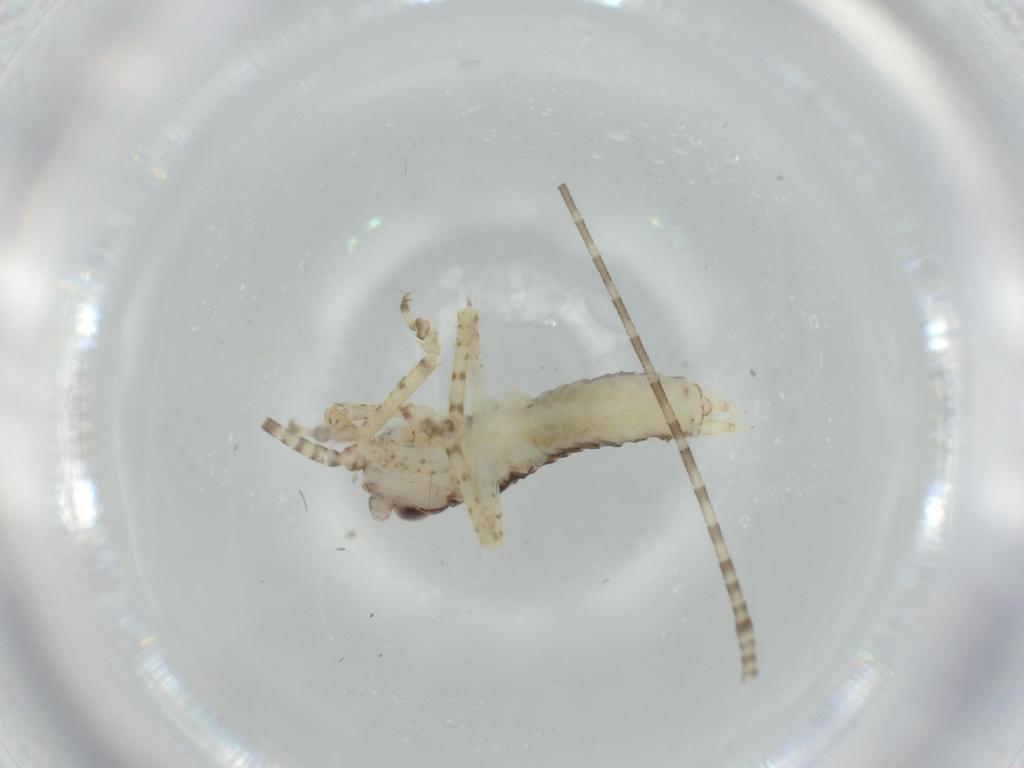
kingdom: Animalia
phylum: Arthropoda
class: Insecta
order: Orthoptera
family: Gryllidae
